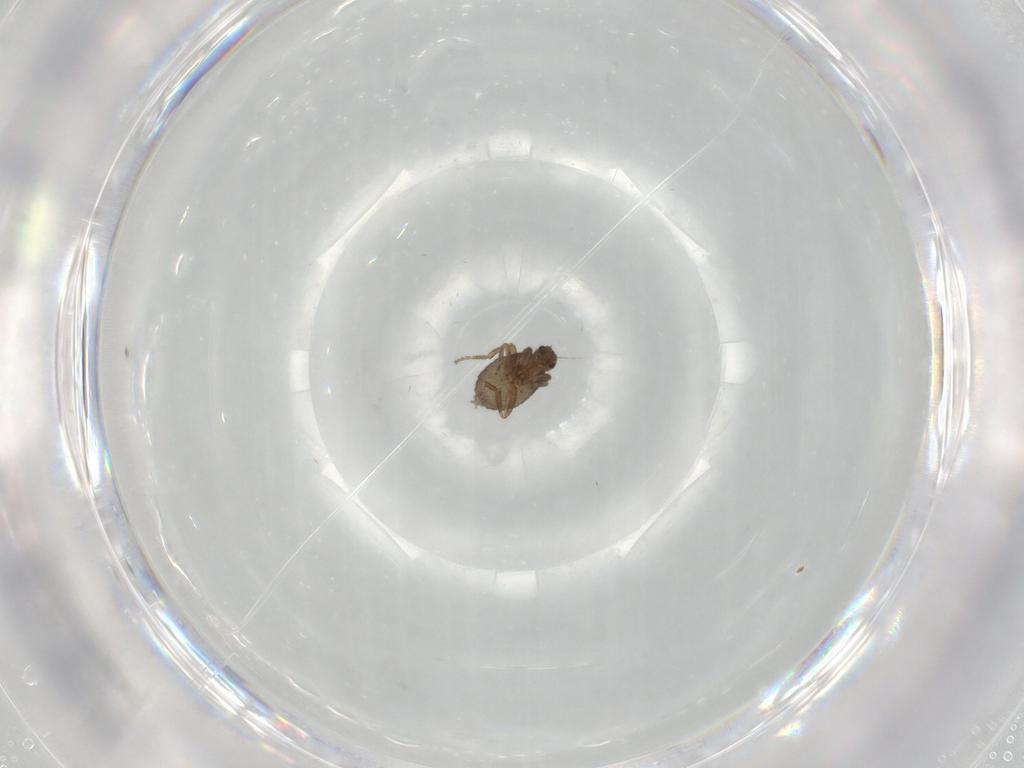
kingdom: Animalia
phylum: Arthropoda
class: Insecta
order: Diptera
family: Phoridae
